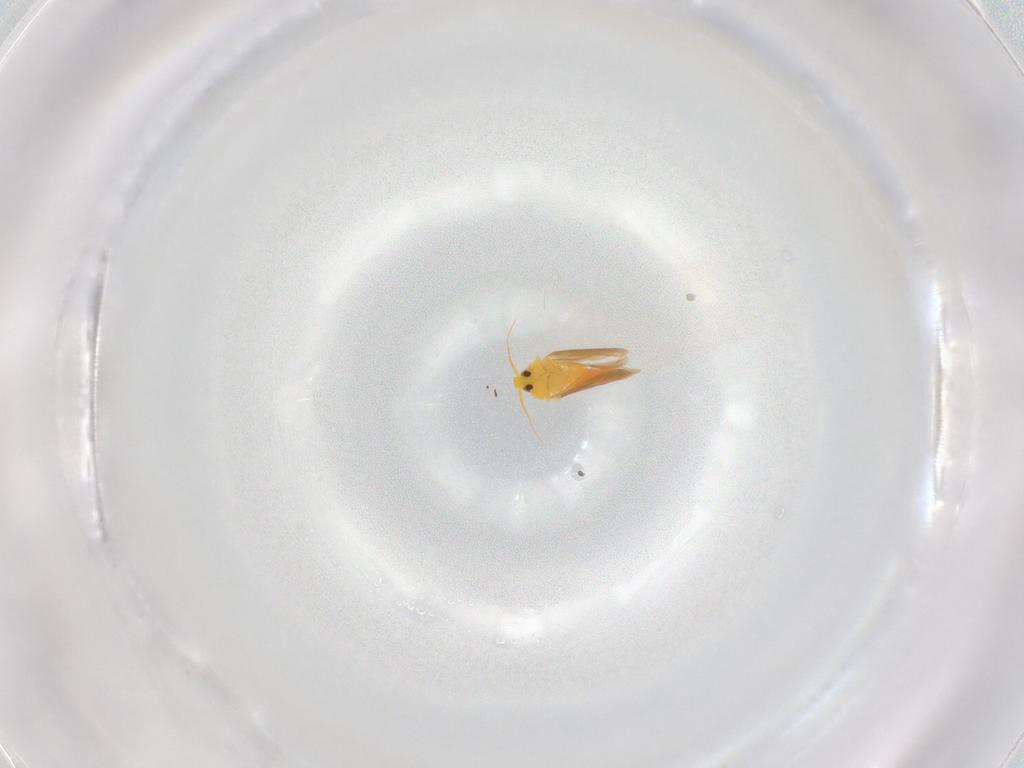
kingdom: Animalia
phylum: Arthropoda
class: Insecta
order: Hemiptera
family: Aleyrodidae
